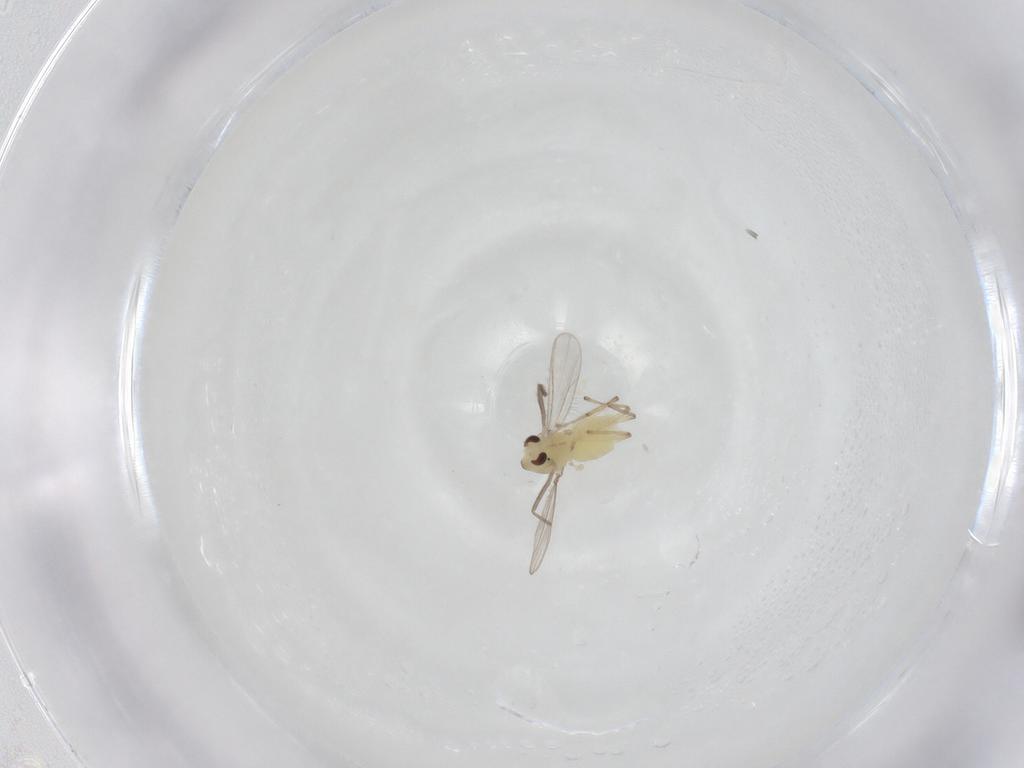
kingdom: Animalia
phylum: Arthropoda
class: Insecta
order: Diptera
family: Chironomidae
